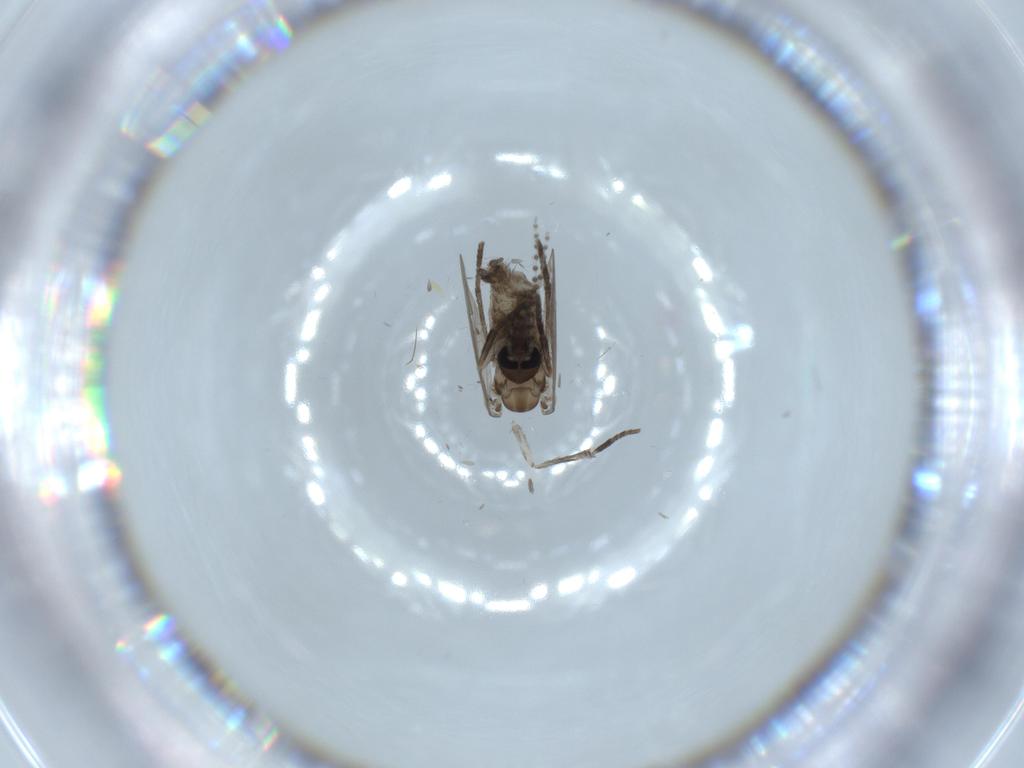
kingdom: Animalia
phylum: Arthropoda
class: Insecta
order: Diptera
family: Psychodidae
